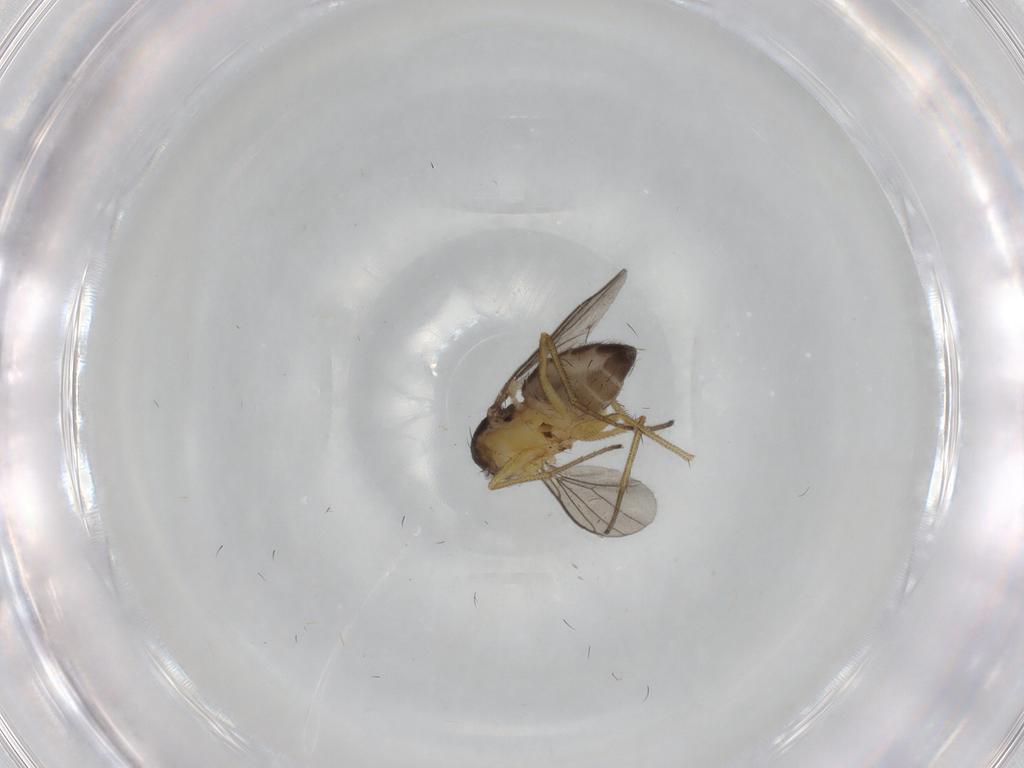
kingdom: Animalia
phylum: Arthropoda
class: Insecta
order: Diptera
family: Dolichopodidae
